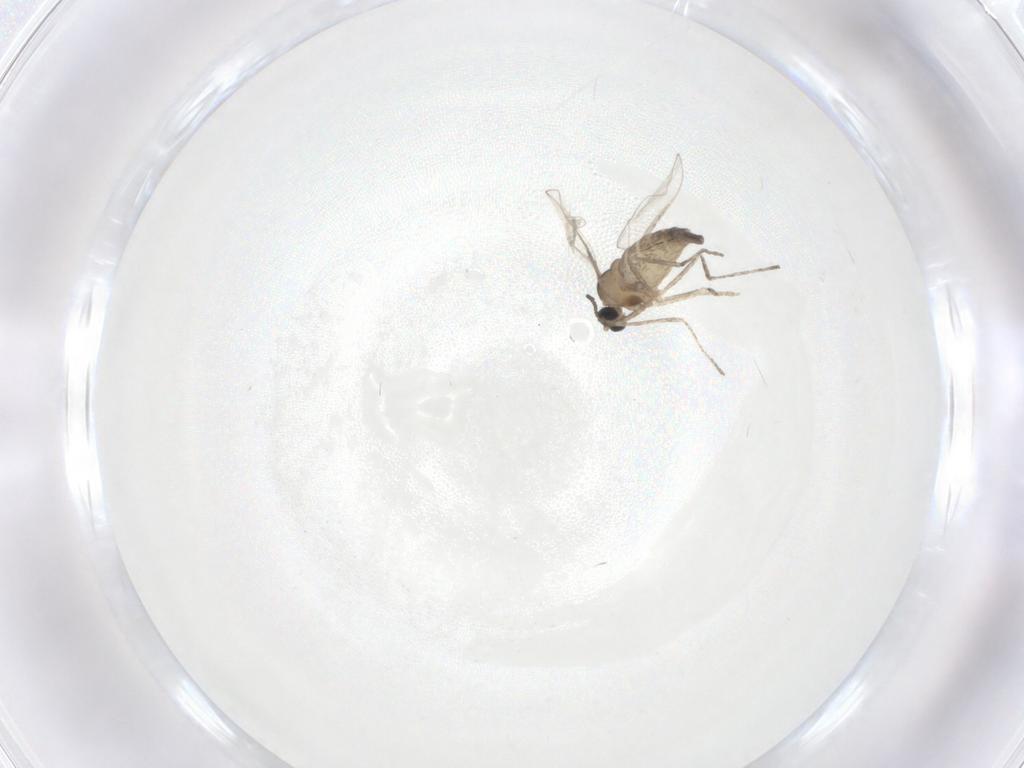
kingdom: Animalia
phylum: Arthropoda
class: Insecta
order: Diptera
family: Cecidomyiidae
